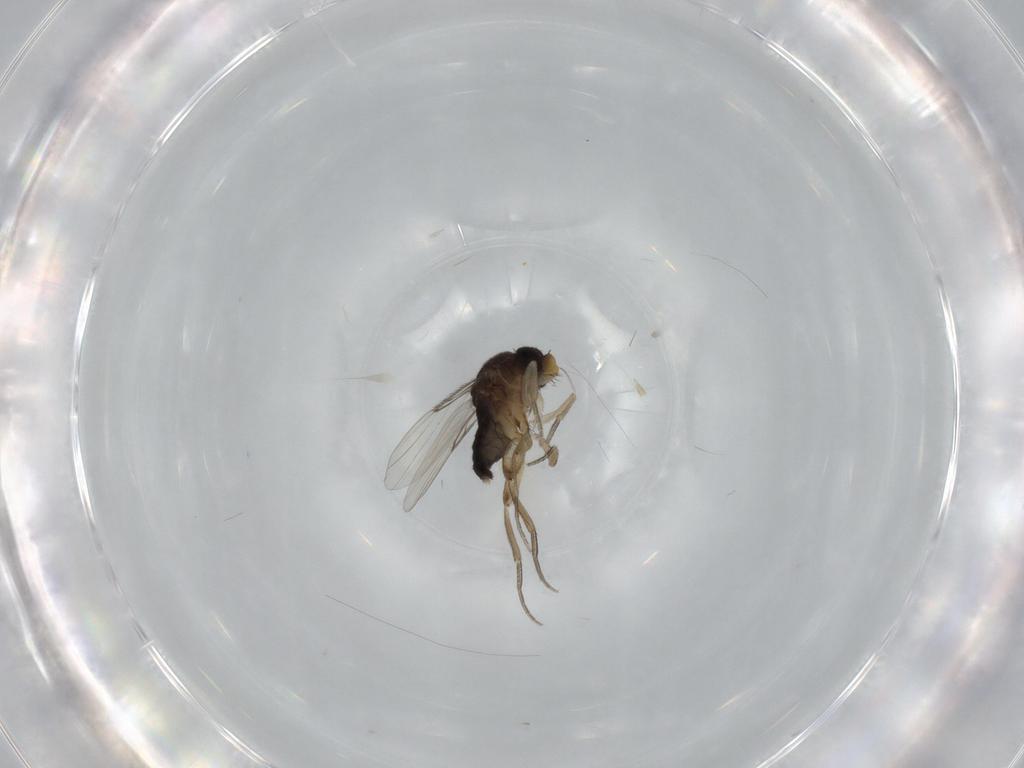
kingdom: Animalia
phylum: Arthropoda
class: Insecta
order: Diptera
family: Phoridae
